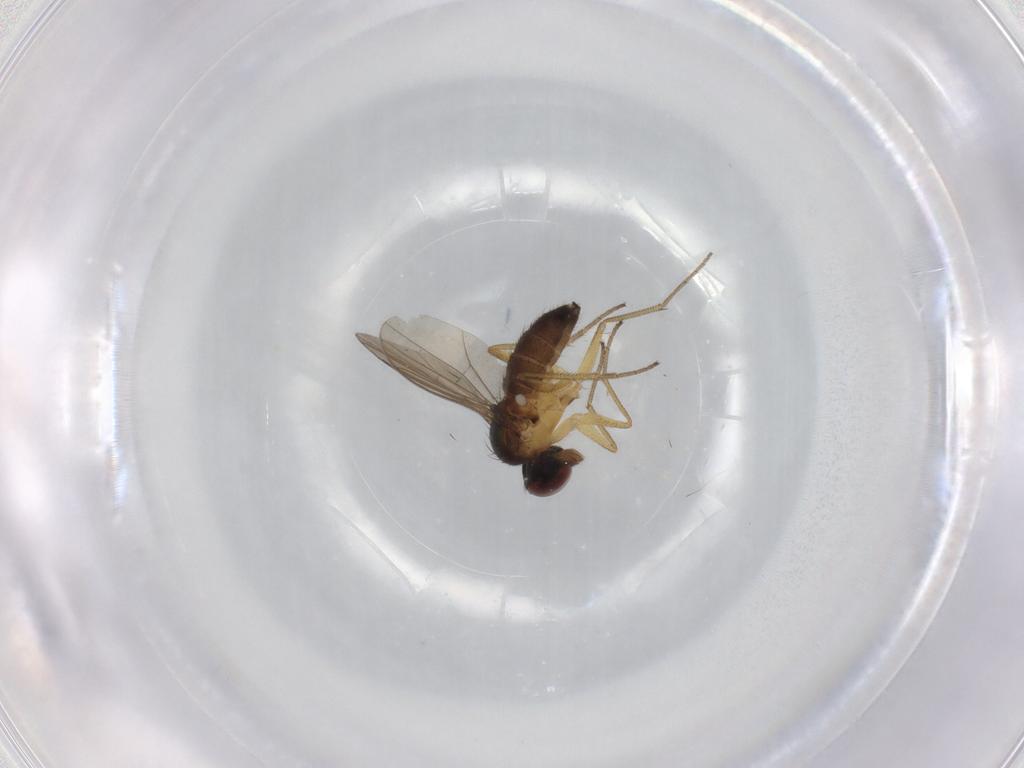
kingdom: Animalia
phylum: Arthropoda
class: Insecta
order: Diptera
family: Dolichopodidae
